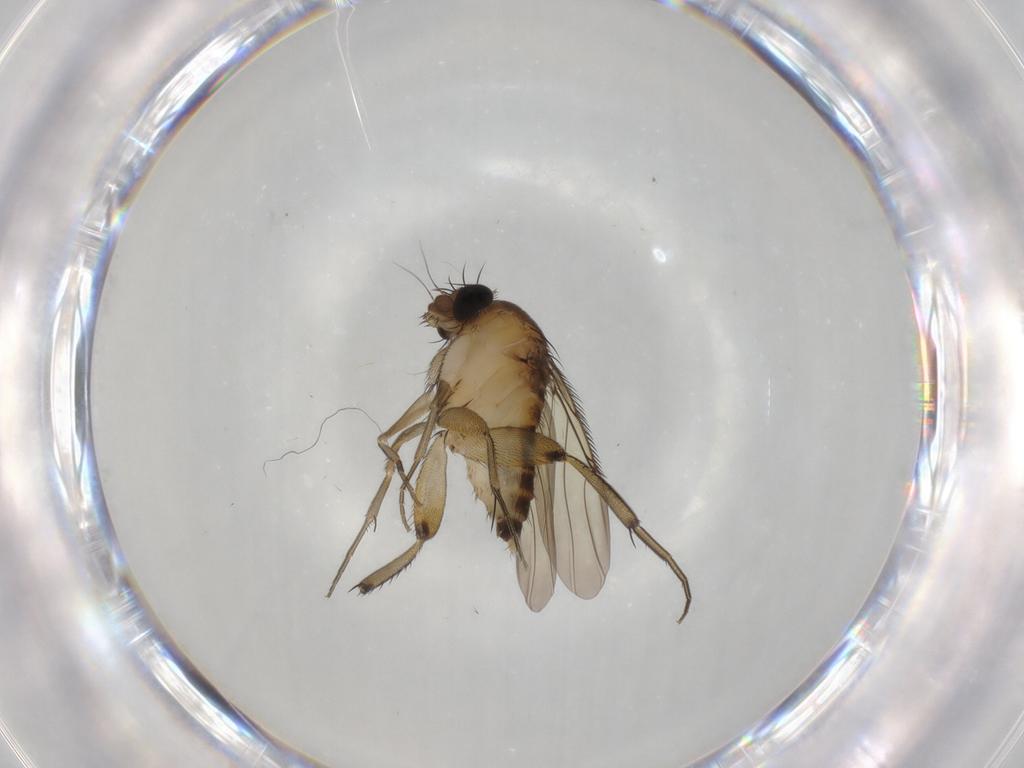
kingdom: Animalia
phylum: Arthropoda
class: Insecta
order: Diptera
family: Phoridae
